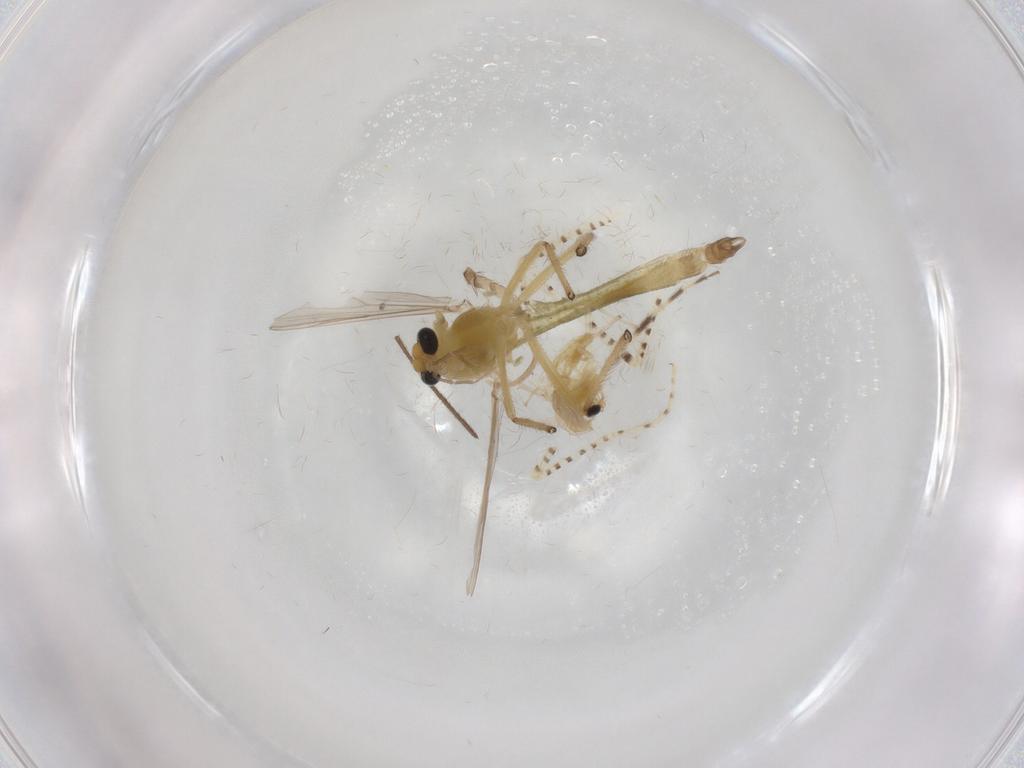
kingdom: Animalia
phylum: Arthropoda
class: Insecta
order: Diptera
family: Chironomidae
